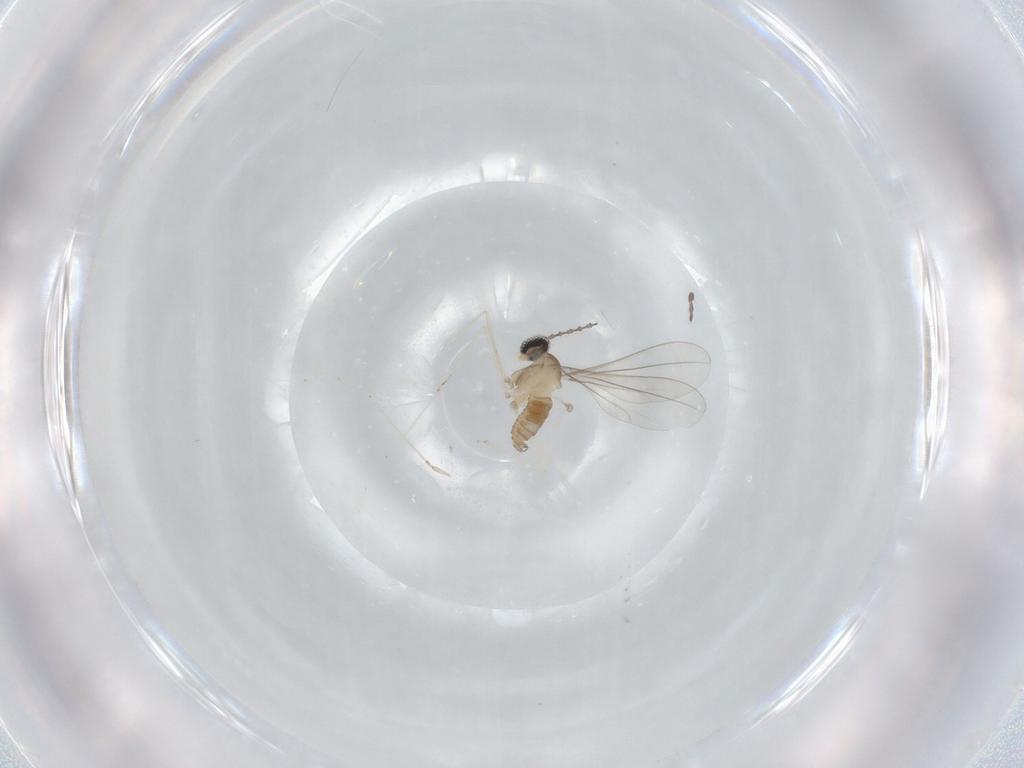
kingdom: Animalia
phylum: Arthropoda
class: Insecta
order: Diptera
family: Cecidomyiidae
